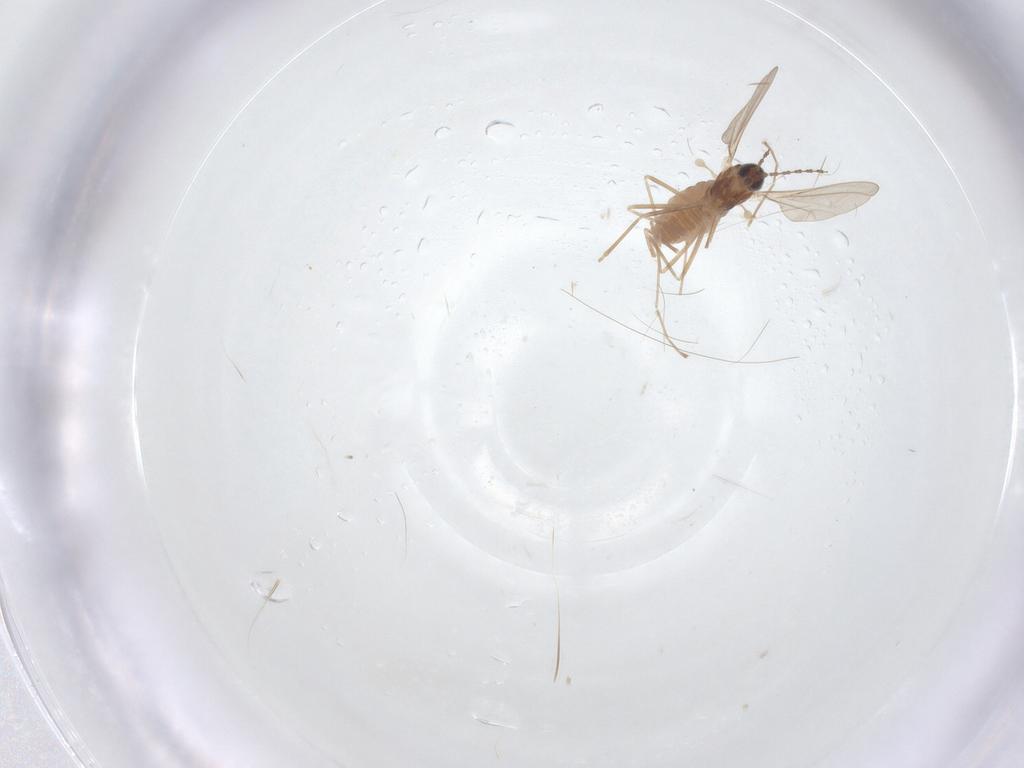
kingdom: Animalia
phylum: Arthropoda
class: Insecta
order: Diptera
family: Cecidomyiidae
